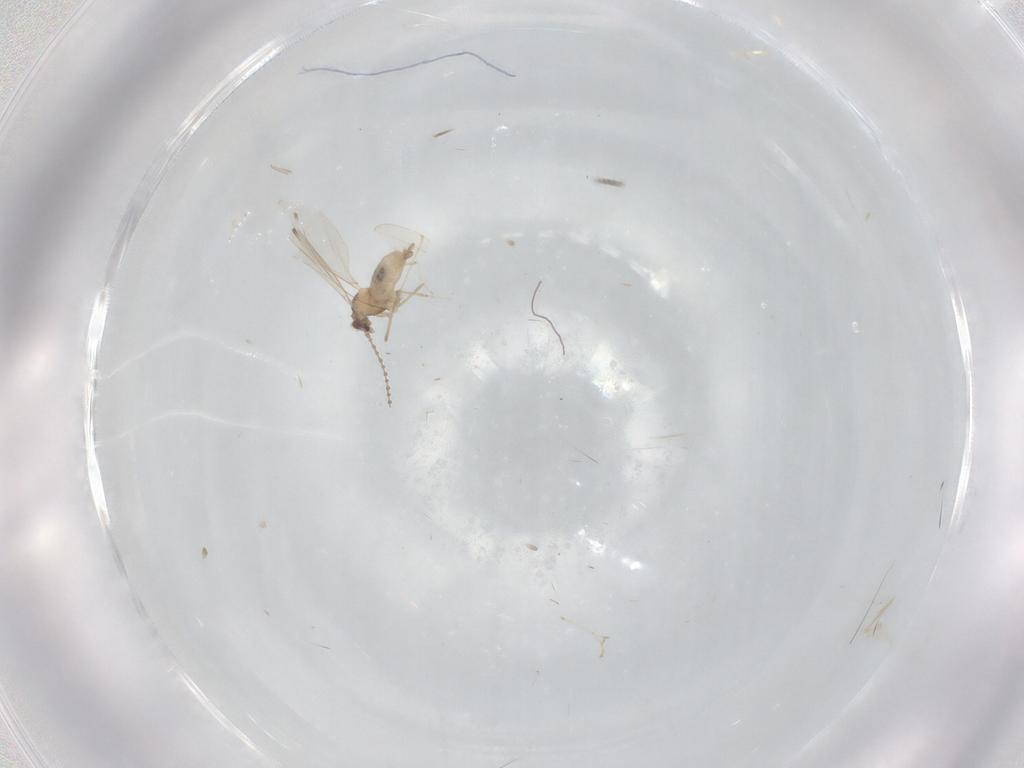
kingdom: Animalia
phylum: Arthropoda
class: Insecta
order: Diptera
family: Cecidomyiidae
